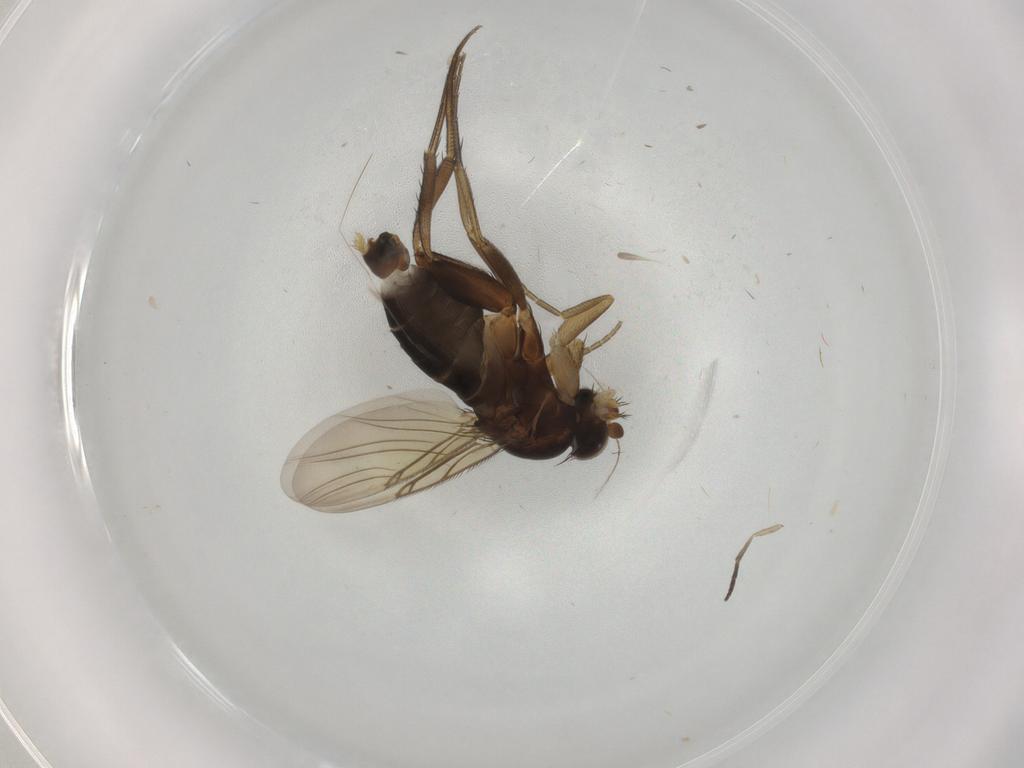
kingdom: Animalia
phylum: Arthropoda
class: Insecta
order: Diptera
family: Phoridae
